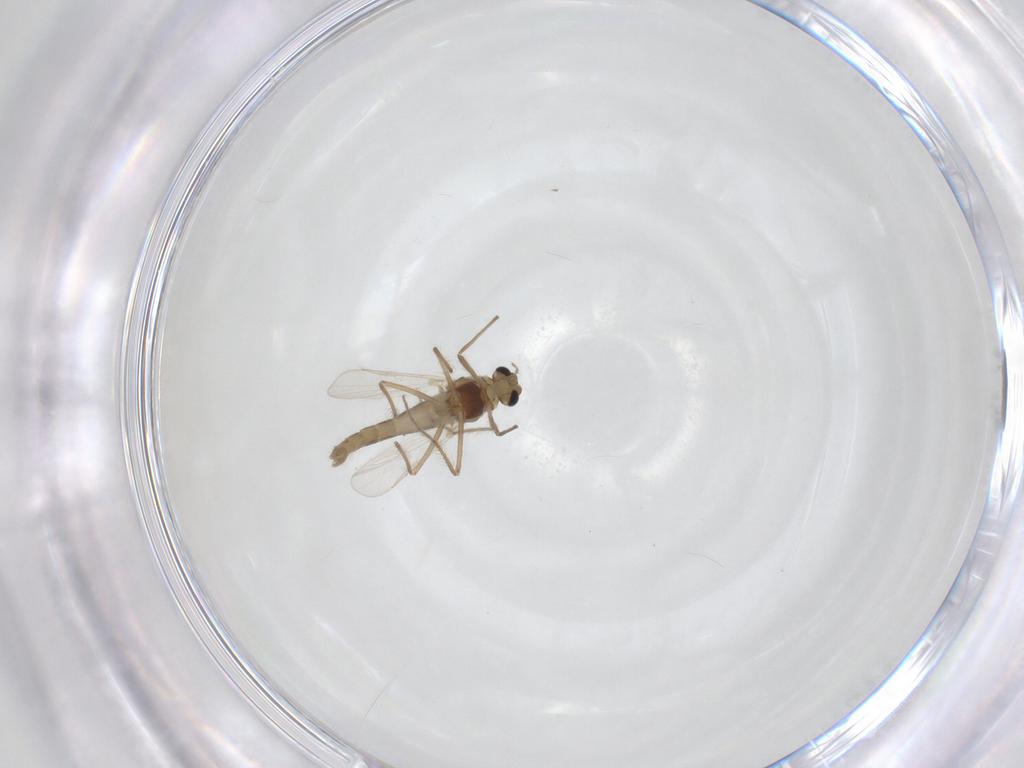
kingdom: Animalia
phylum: Arthropoda
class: Insecta
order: Diptera
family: Chironomidae
